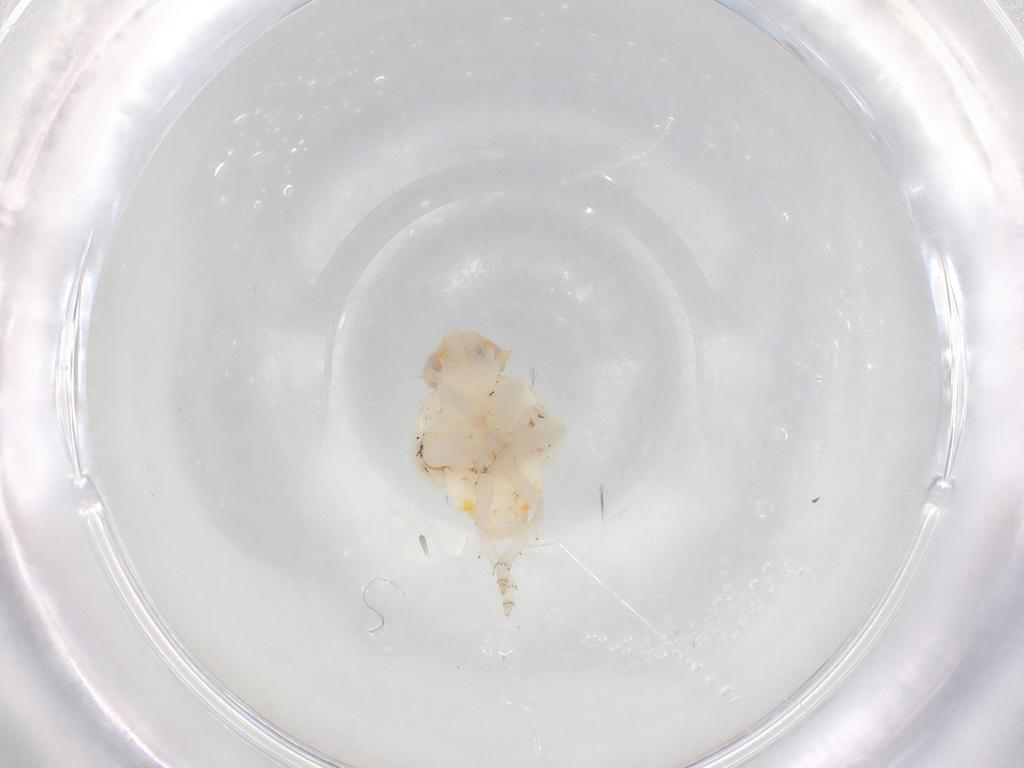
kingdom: Animalia
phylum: Arthropoda
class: Insecta
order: Hemiptera
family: Nogodinidae
